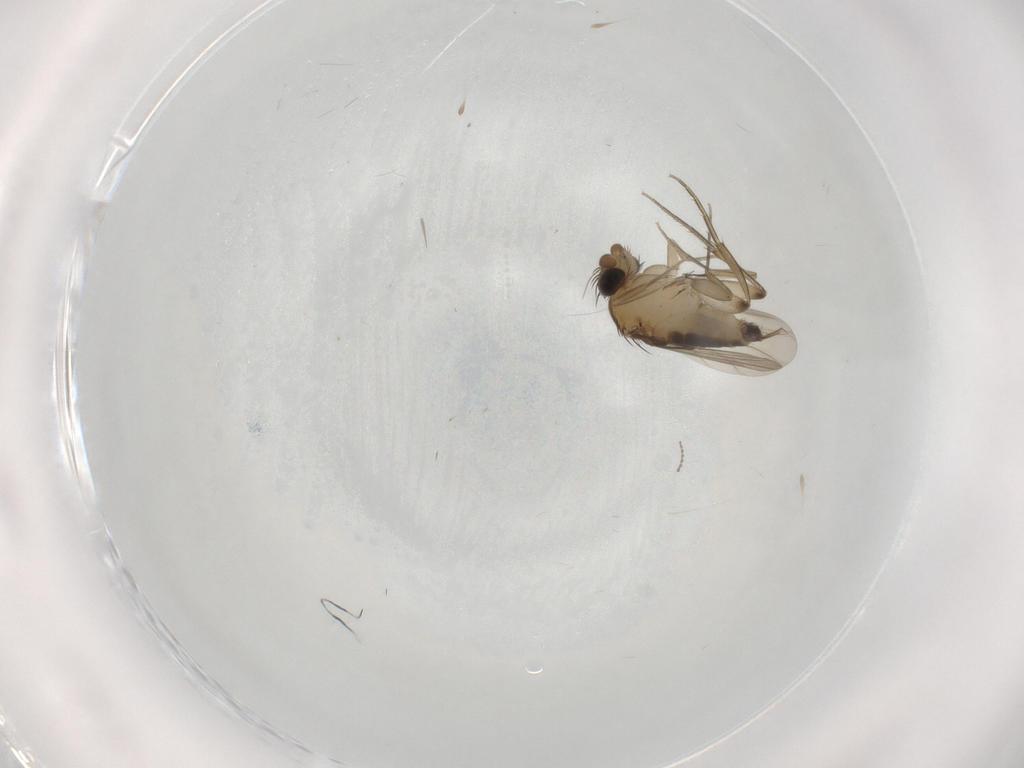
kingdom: Animalia
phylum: Arthropoda
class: Insecta
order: Diptera
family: Phoridae
